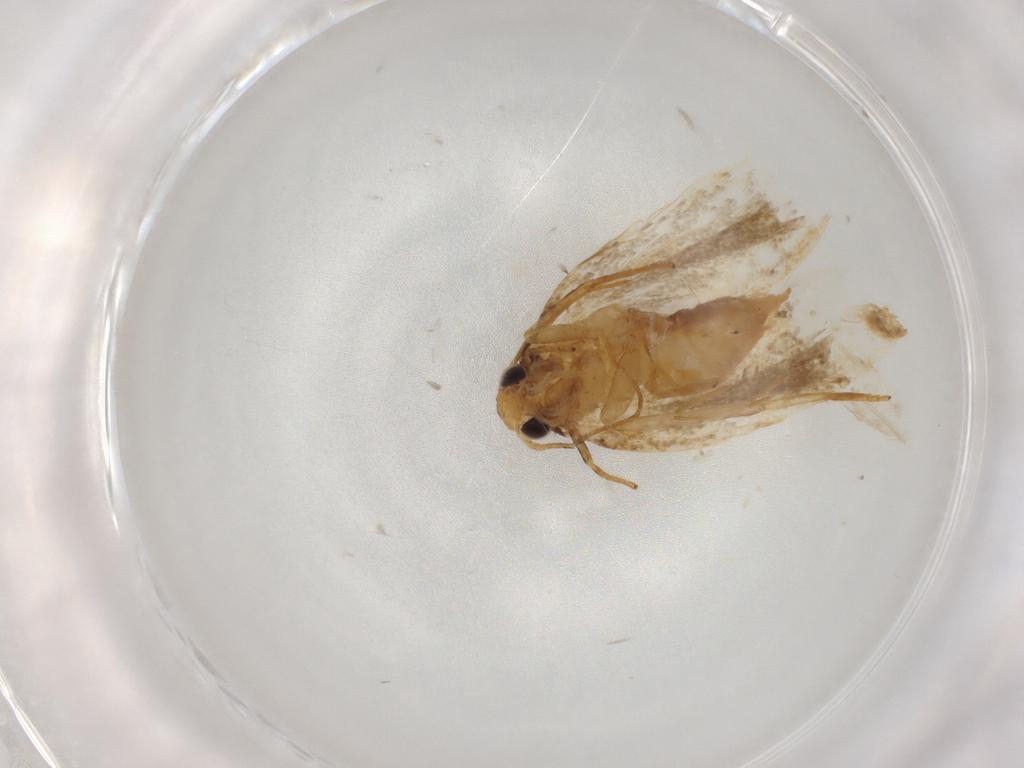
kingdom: Animalia
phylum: Arthropoda
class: Insecta
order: Lepidoptera
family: Depressariidae
